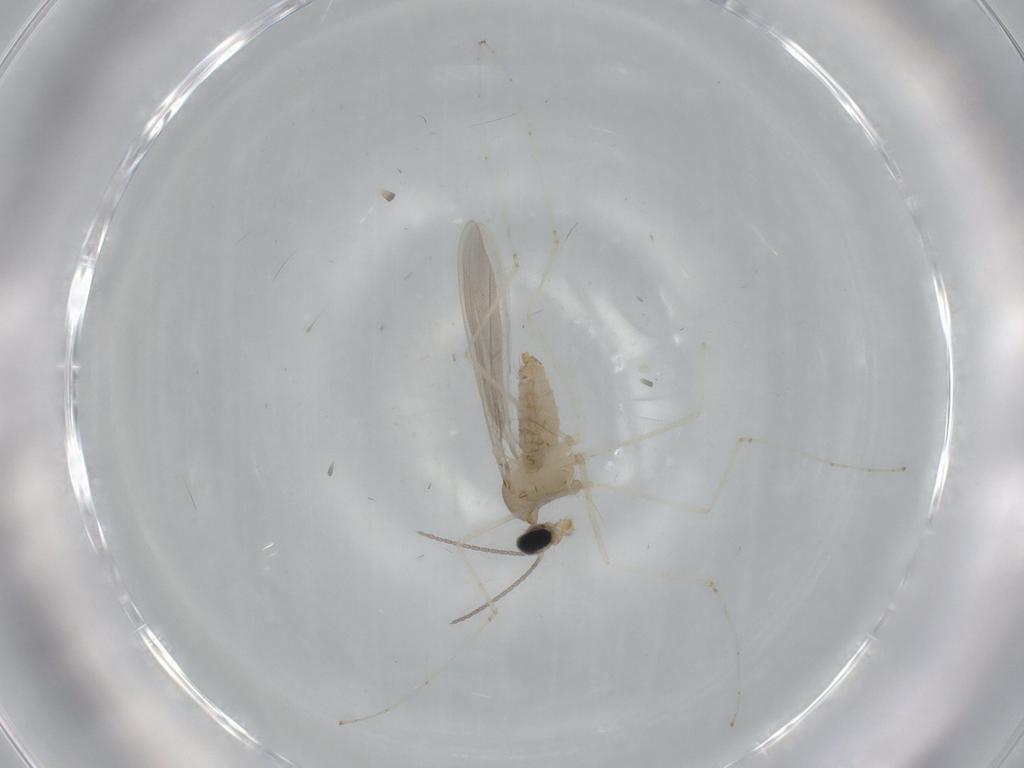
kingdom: Animalia
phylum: Arthropoda
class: Insecta
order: Diptera
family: Cecidomyiidae
